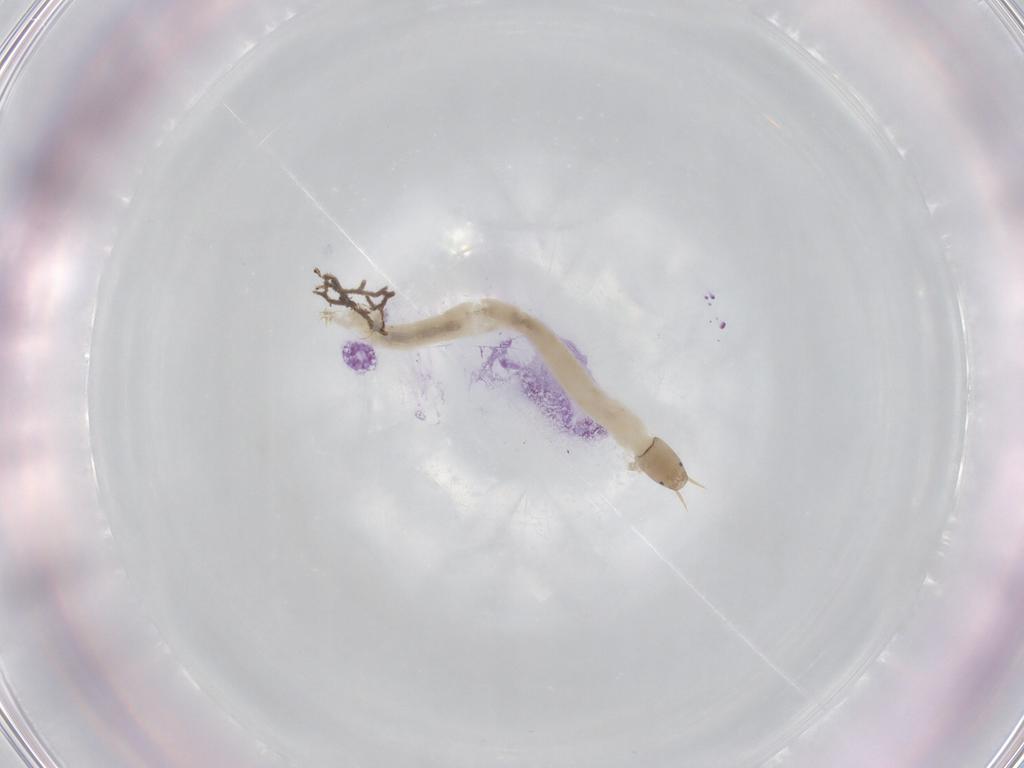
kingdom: Animalia
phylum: Arthropoda
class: Insecta
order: Diptera
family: Chironomidae
